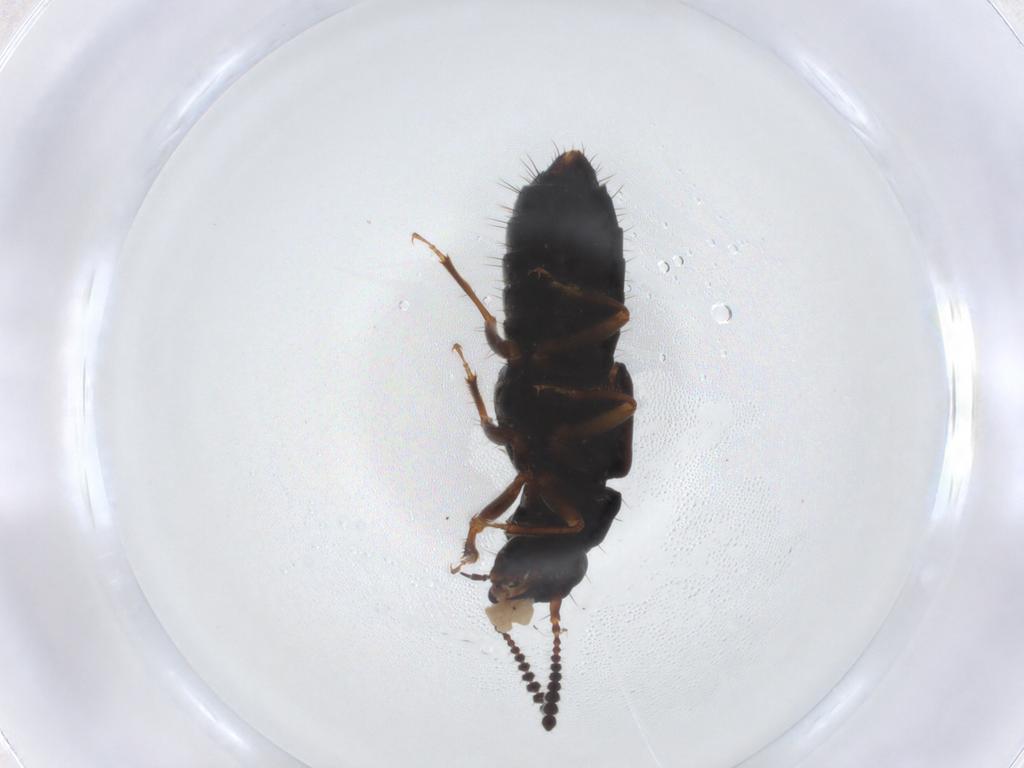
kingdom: Animalia
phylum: Arthropoda
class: Insecta
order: Coleoptera
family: Staphylinidae
